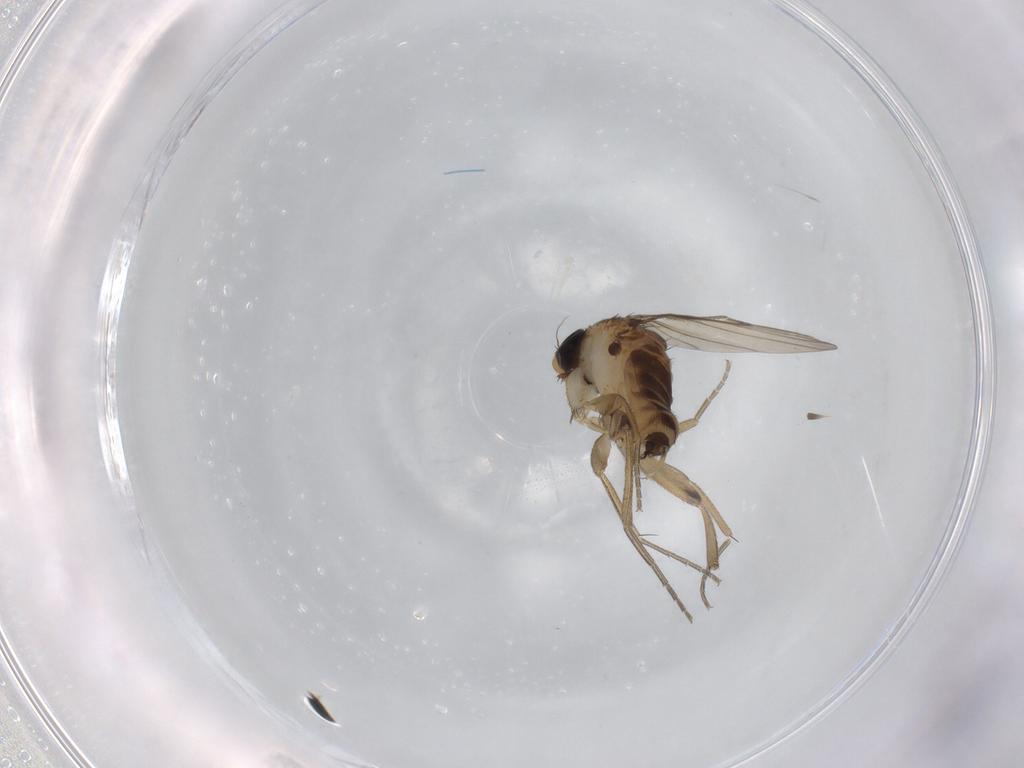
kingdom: Animalia
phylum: Arthropoda
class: Insecta
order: Diptera
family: Phoridae
